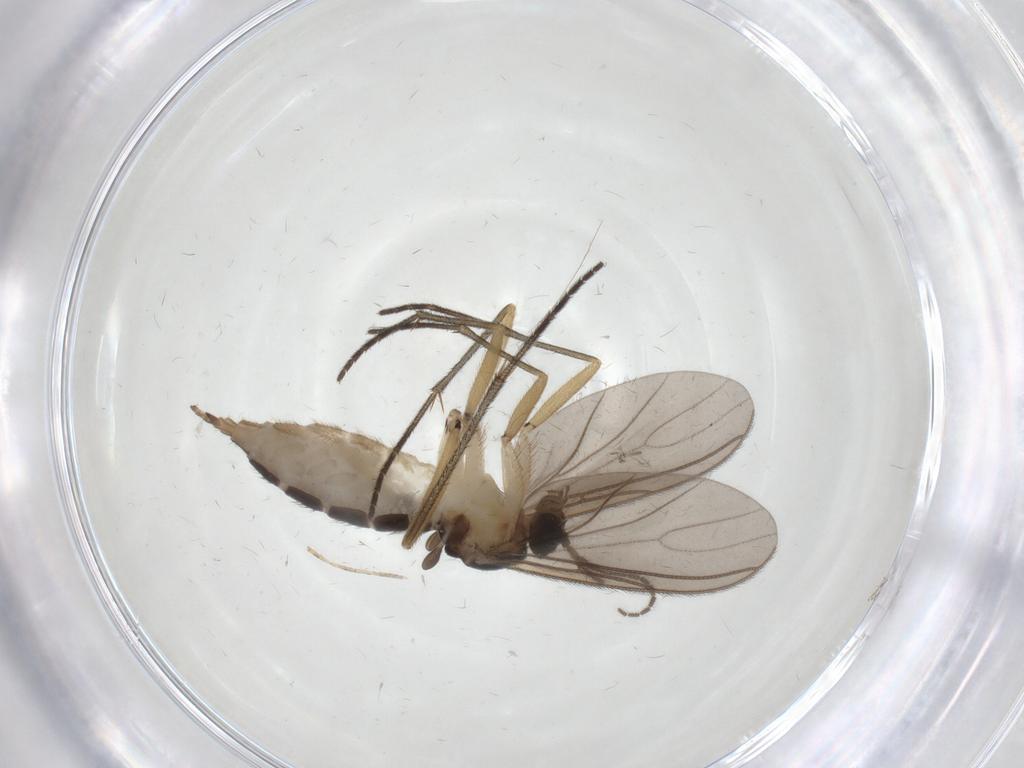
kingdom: Animalia
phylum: Arthropoda
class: Insecta
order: Diptera
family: Sciaridae
